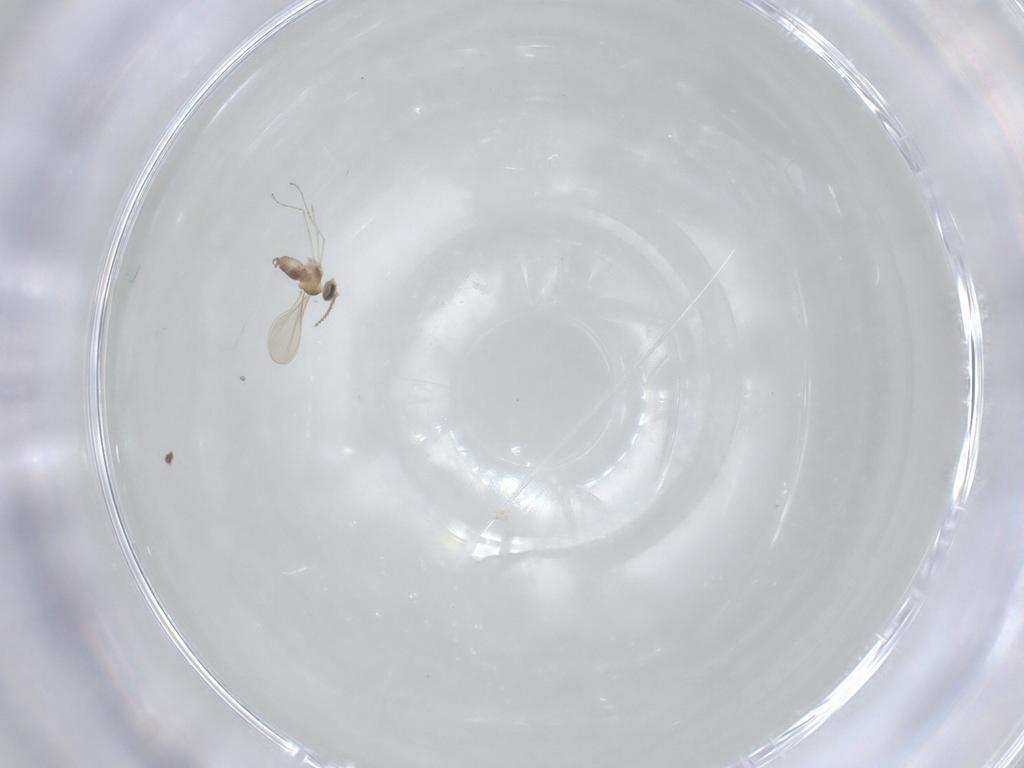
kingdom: Animalia
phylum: Arthropoda
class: Insecta
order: Diptera
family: Cecidomyiidae
